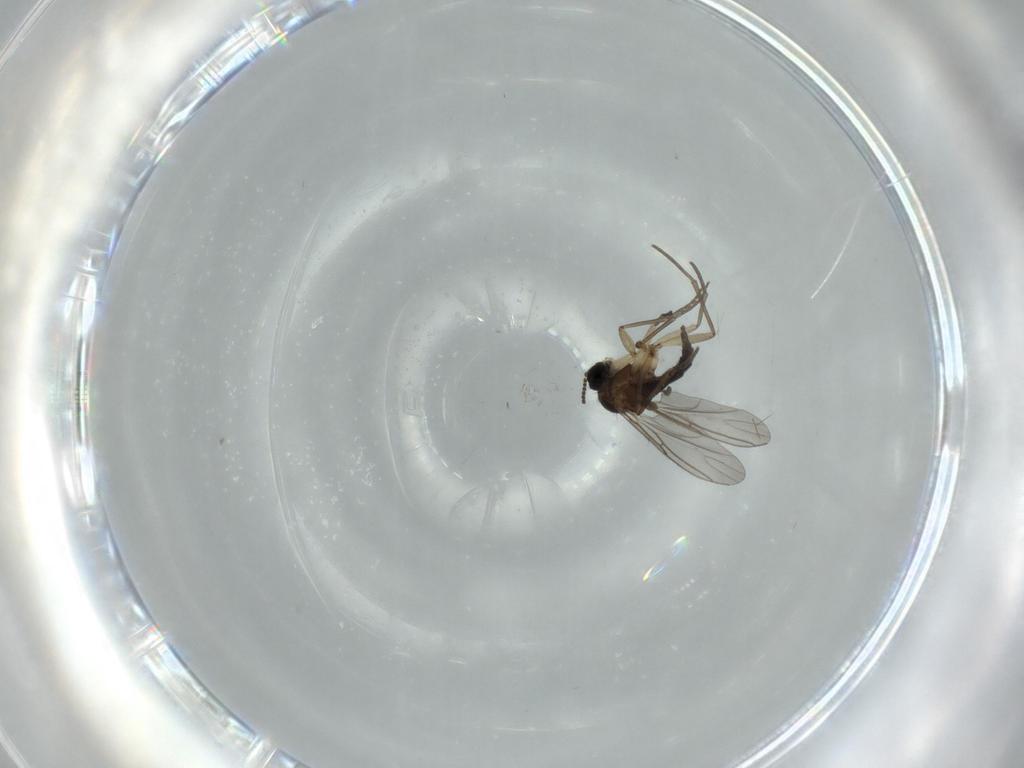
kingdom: Animalia
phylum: Arthropoda
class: Insecta
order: Diptera
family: Cecidomyiidae
